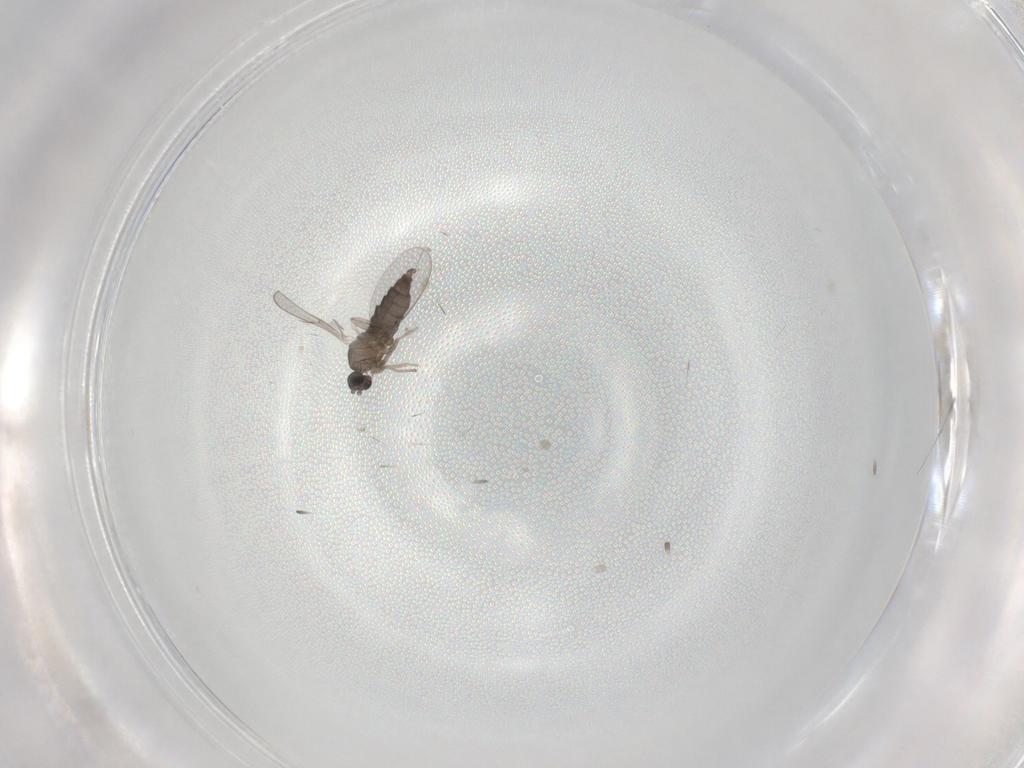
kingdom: Animalia
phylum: Arthropoda
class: Insecta
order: Diptera
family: Cecidomyiidae
